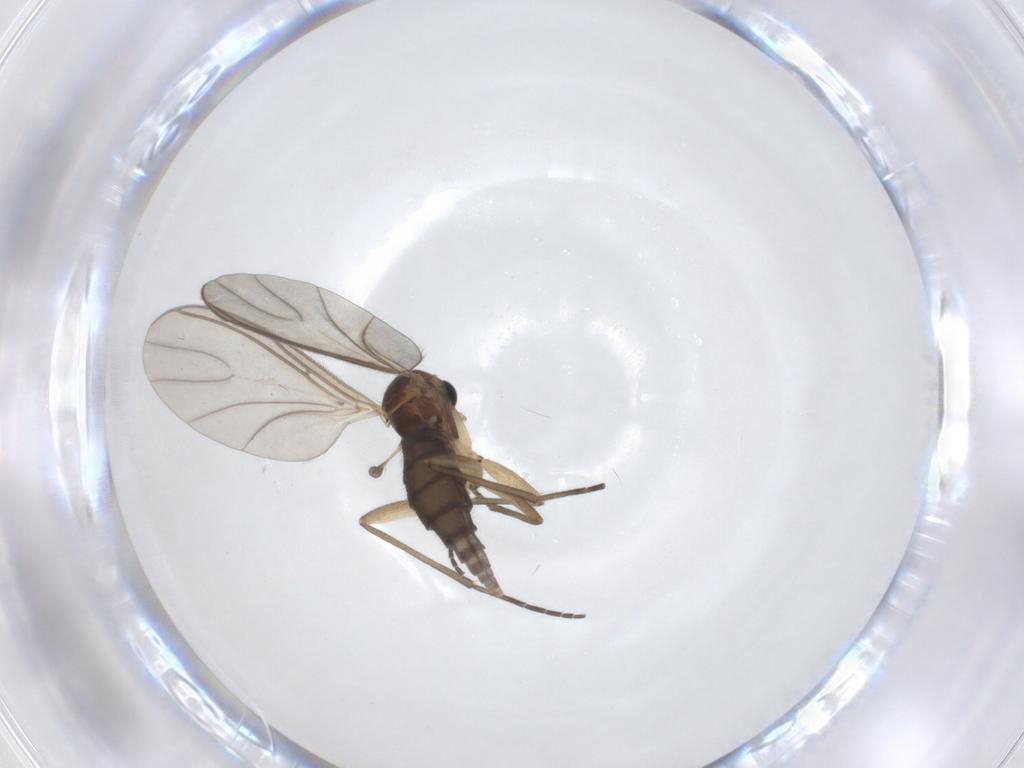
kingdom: Animalia
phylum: Arthropoda
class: Insecta
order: Diptera
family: Sciaridae
